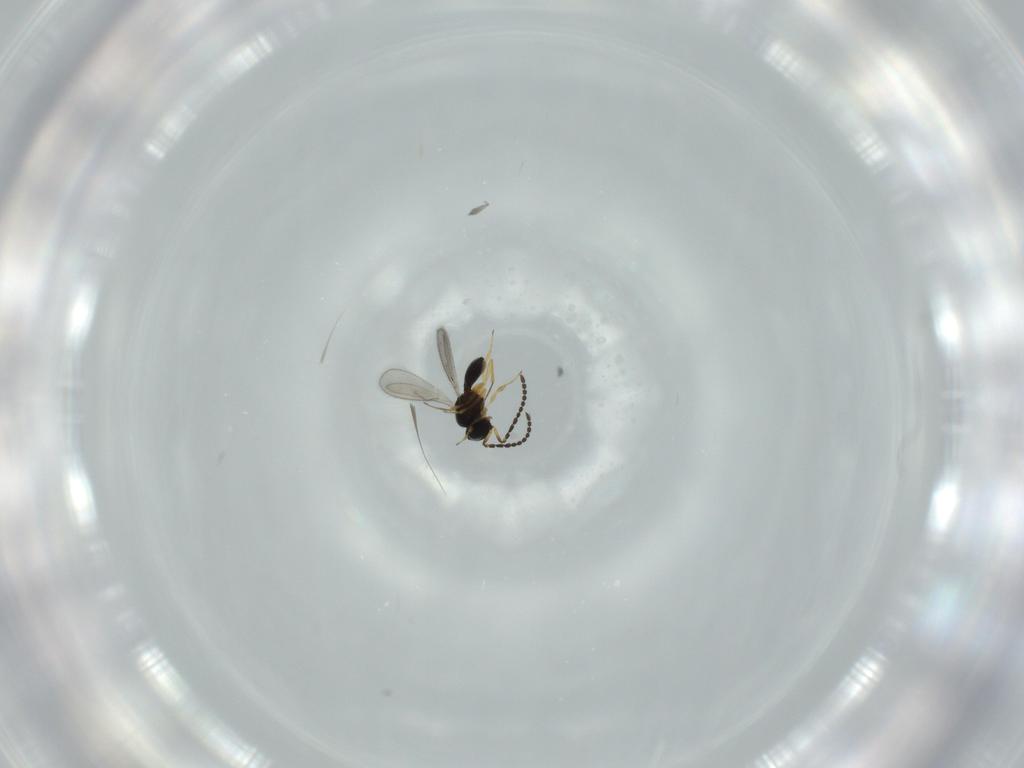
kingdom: Animalia
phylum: Arthropoda
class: Insecta
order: Hymenoptera
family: Scelionidae
